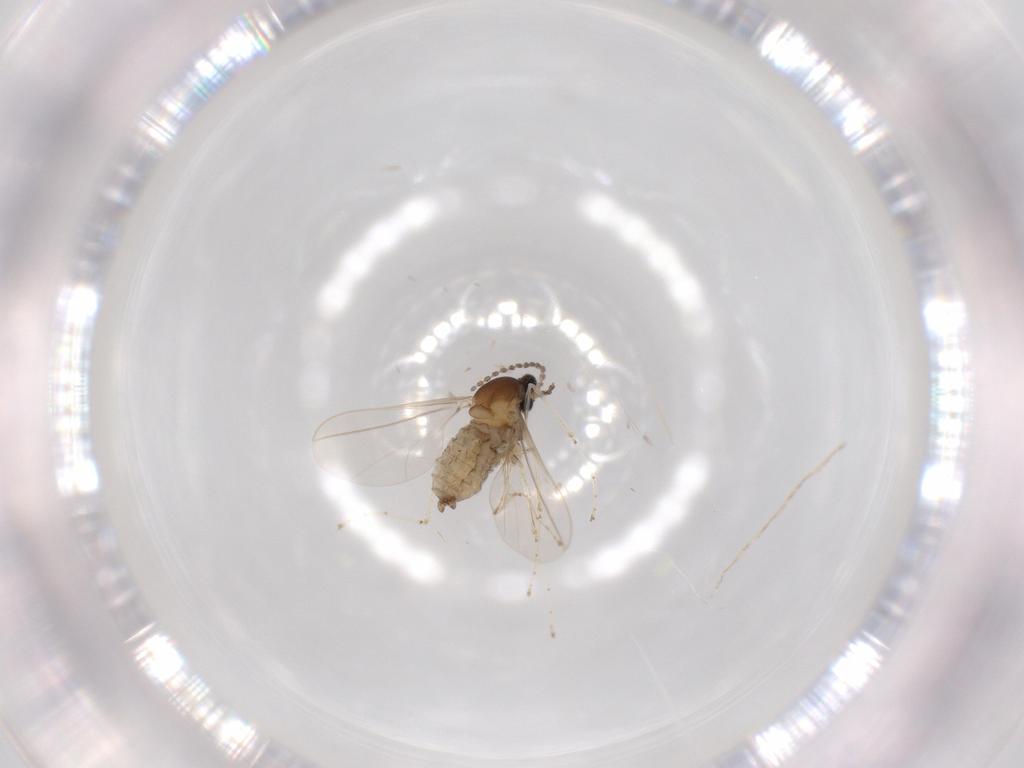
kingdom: Animalia
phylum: Arthropoda
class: Insecta
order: Diptera
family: Cecidomyiidae
